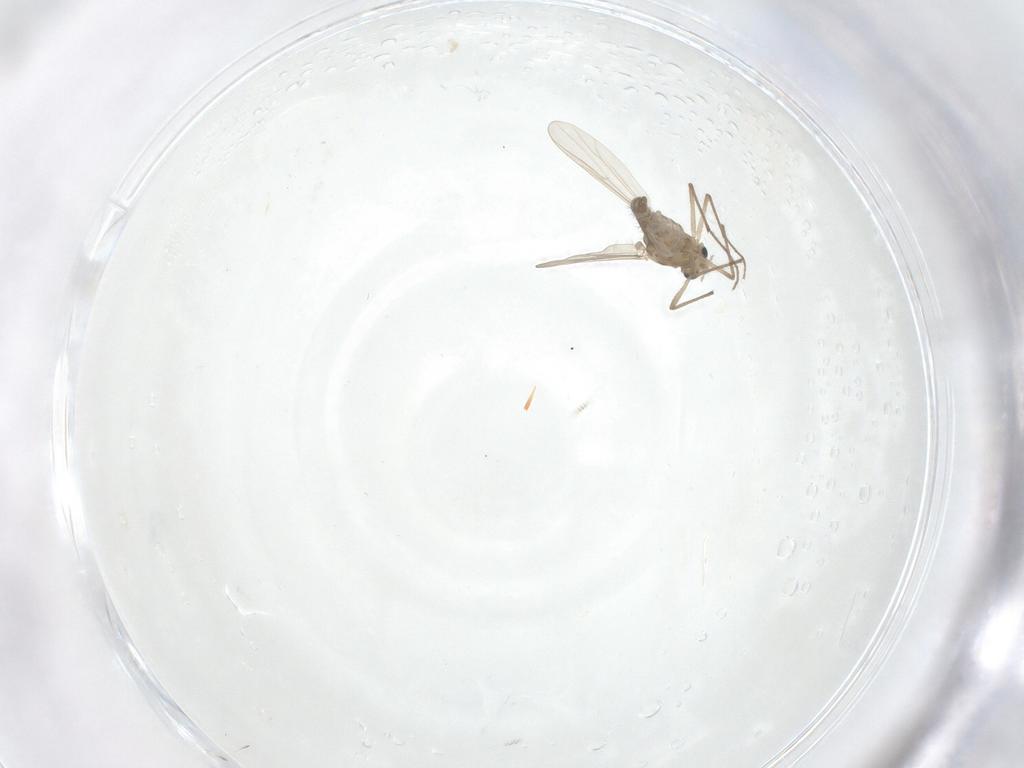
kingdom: Animalia
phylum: Arthropoda
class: Insecta
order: Diptera
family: Chironomidae
